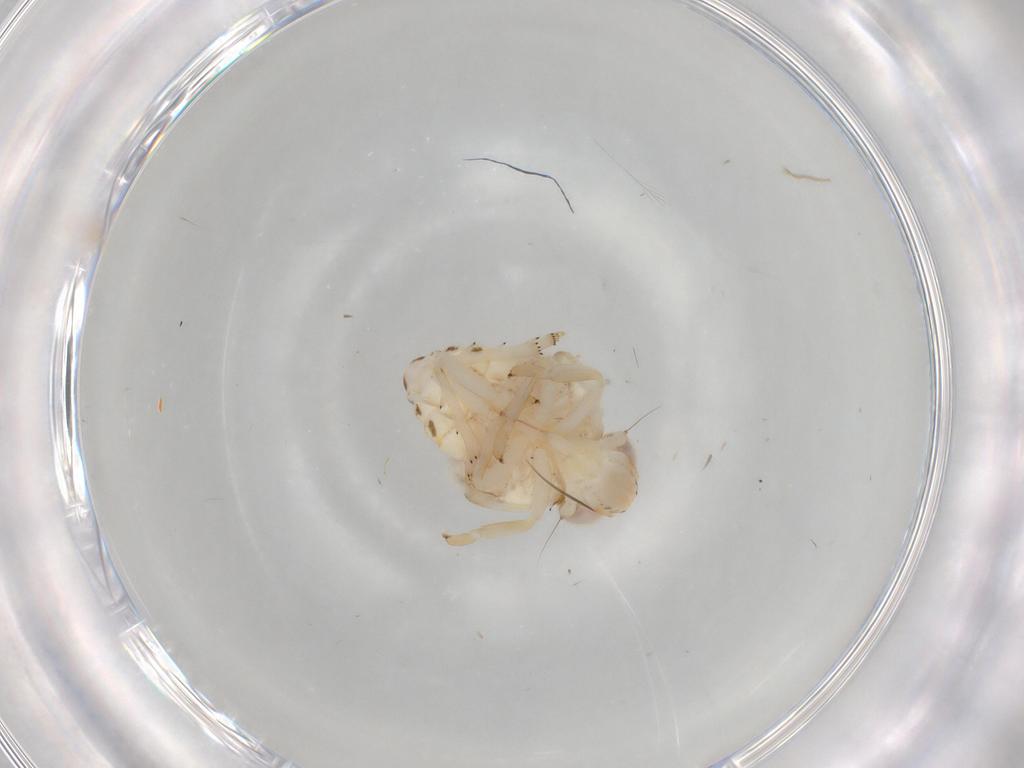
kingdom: Animalia
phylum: Arthropoda
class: Insecta
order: Hemiptera
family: Nogodinidae
